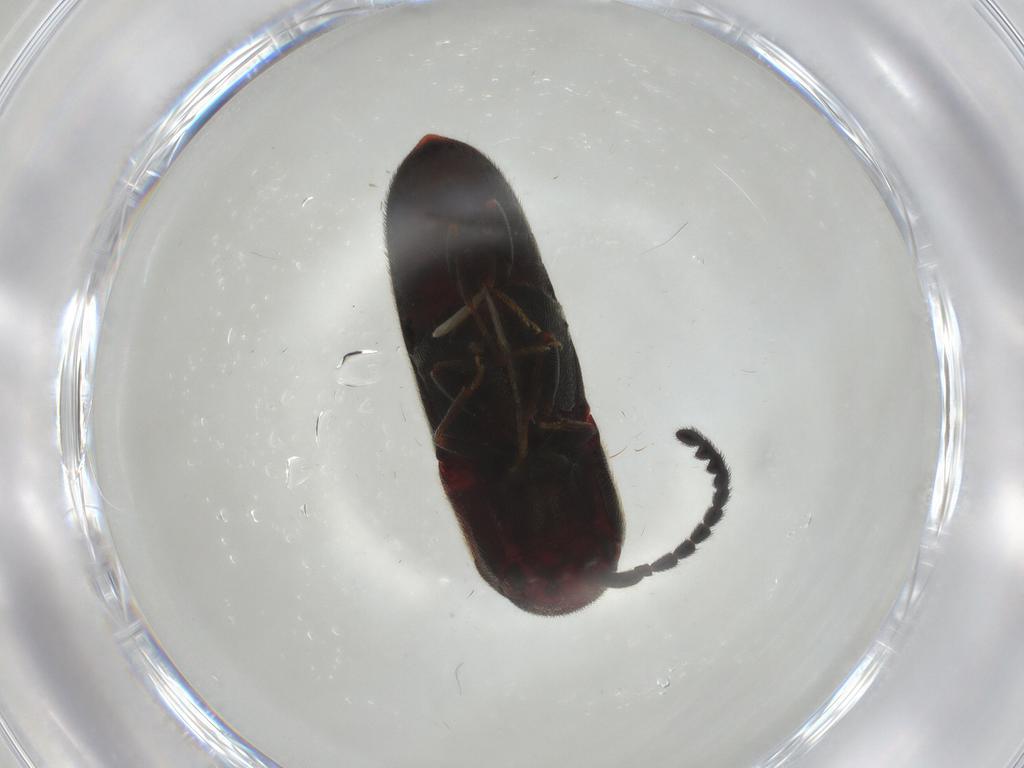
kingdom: Animalia
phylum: Arthropoda
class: Insecta
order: Coleoptera
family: Eucnemidae
